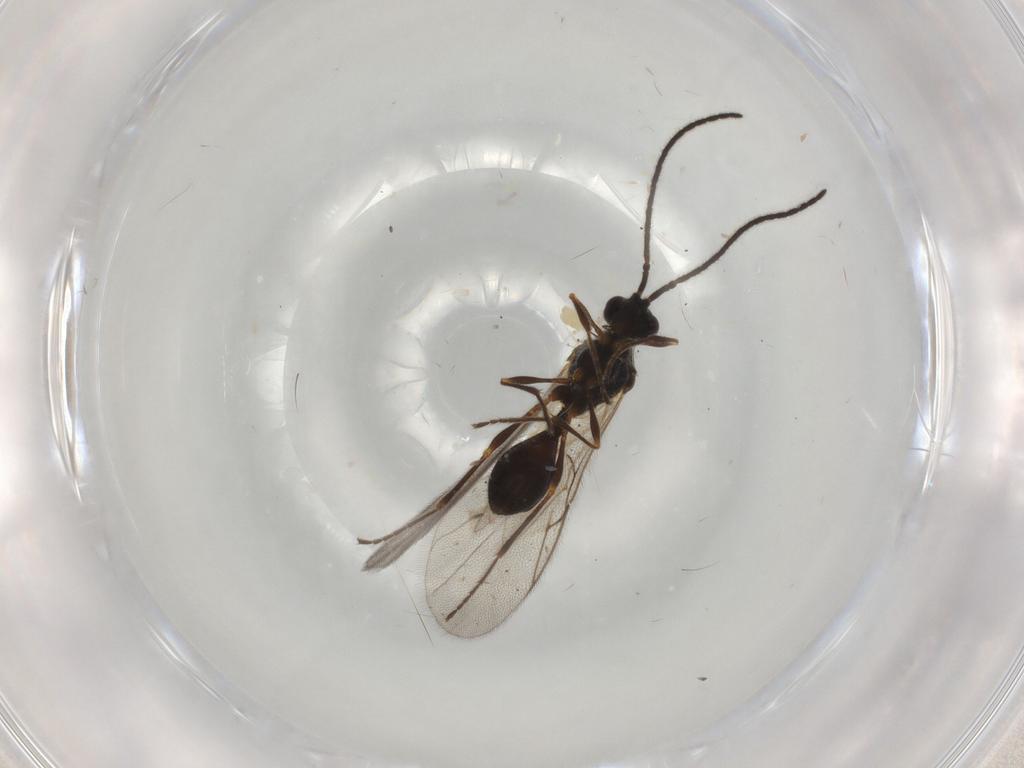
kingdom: Animalia
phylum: Arthropoda
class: Insecta
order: Hymenoptera
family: Diapriidae
